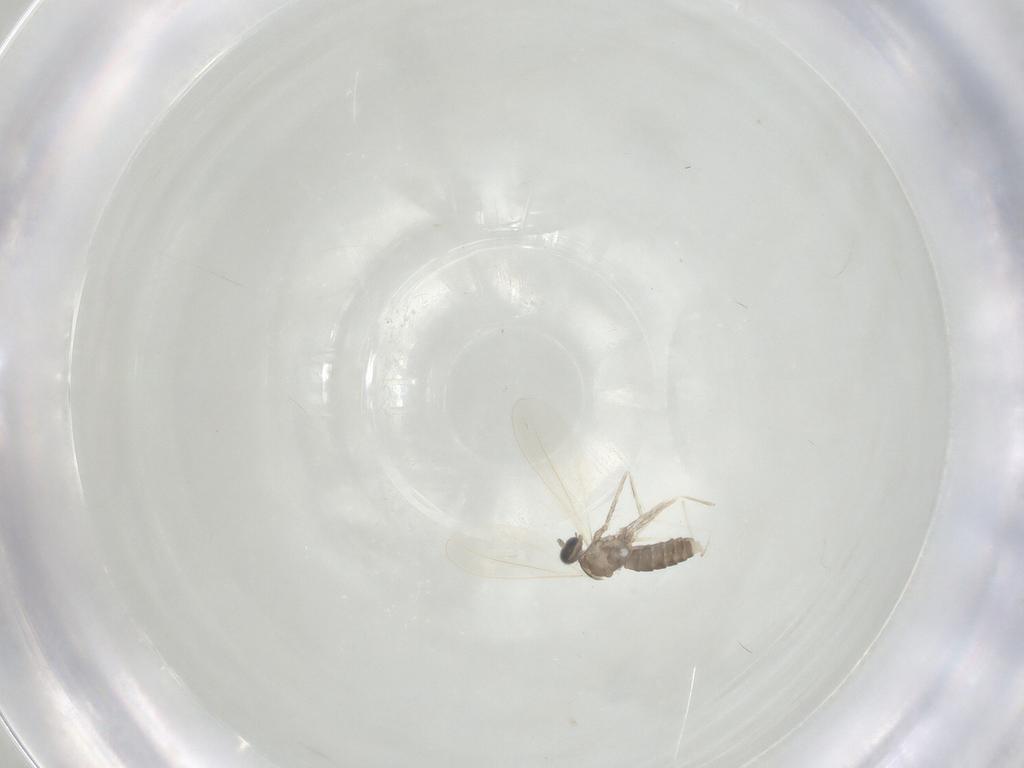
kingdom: Animalia
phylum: Arthropoda
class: Insecta
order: Diptera
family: Cecidomyiidae
